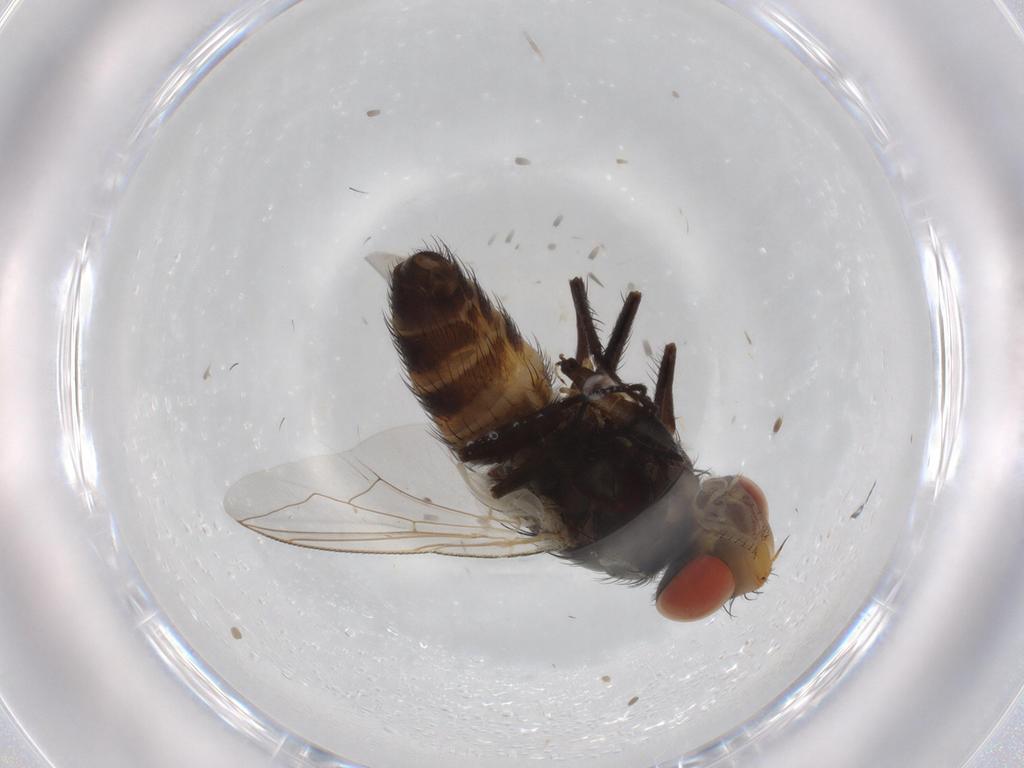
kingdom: Animalia
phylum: Arthropoda
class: Insecta
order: Diptera
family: Sarcophagidae
